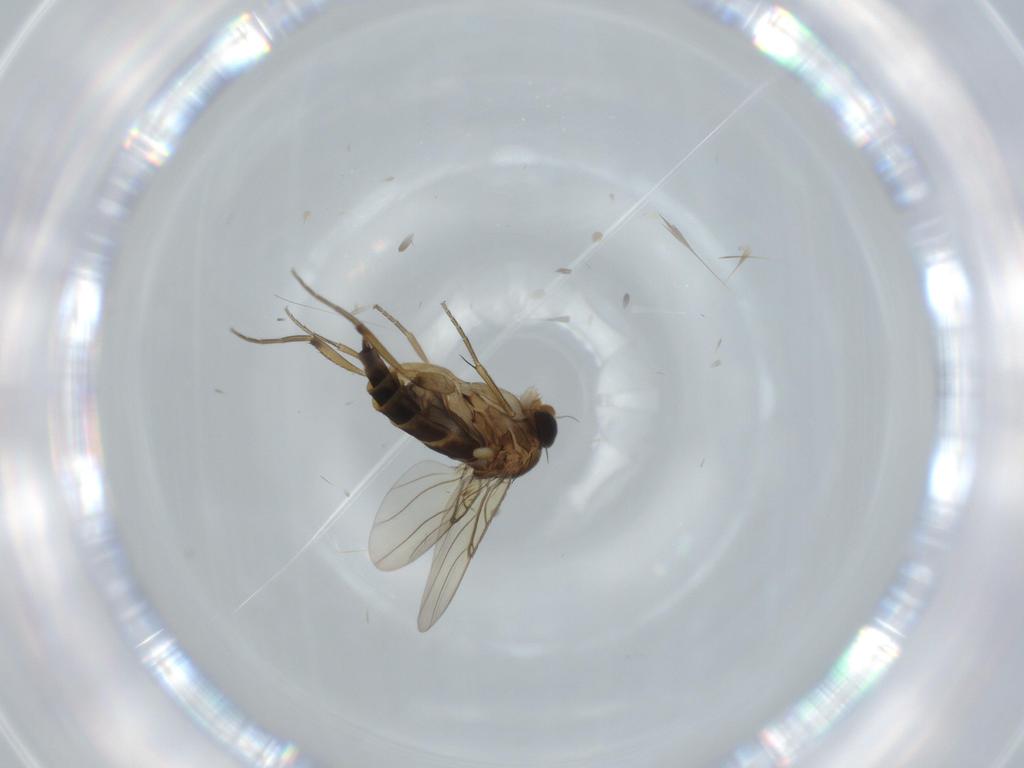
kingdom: Animalia
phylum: Arthropoda
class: Insecta
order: Diptera
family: Phoridae
